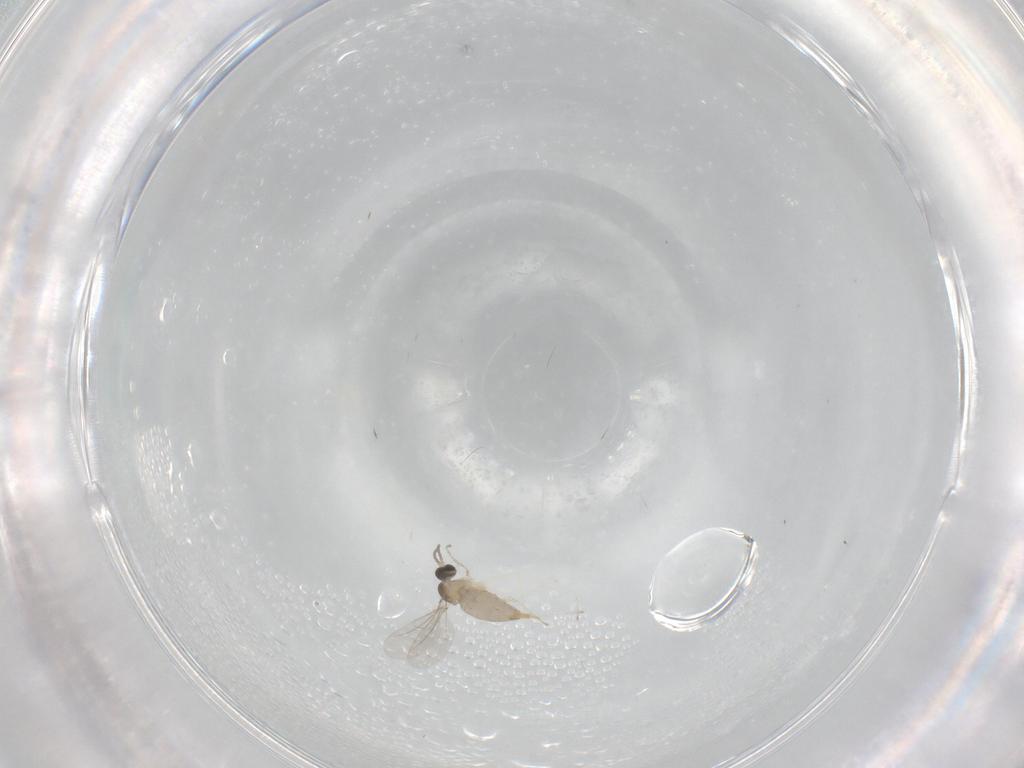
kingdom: Animalia
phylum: Arthropoda
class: Insecta
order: Diptera
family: Cecidomyiidae
